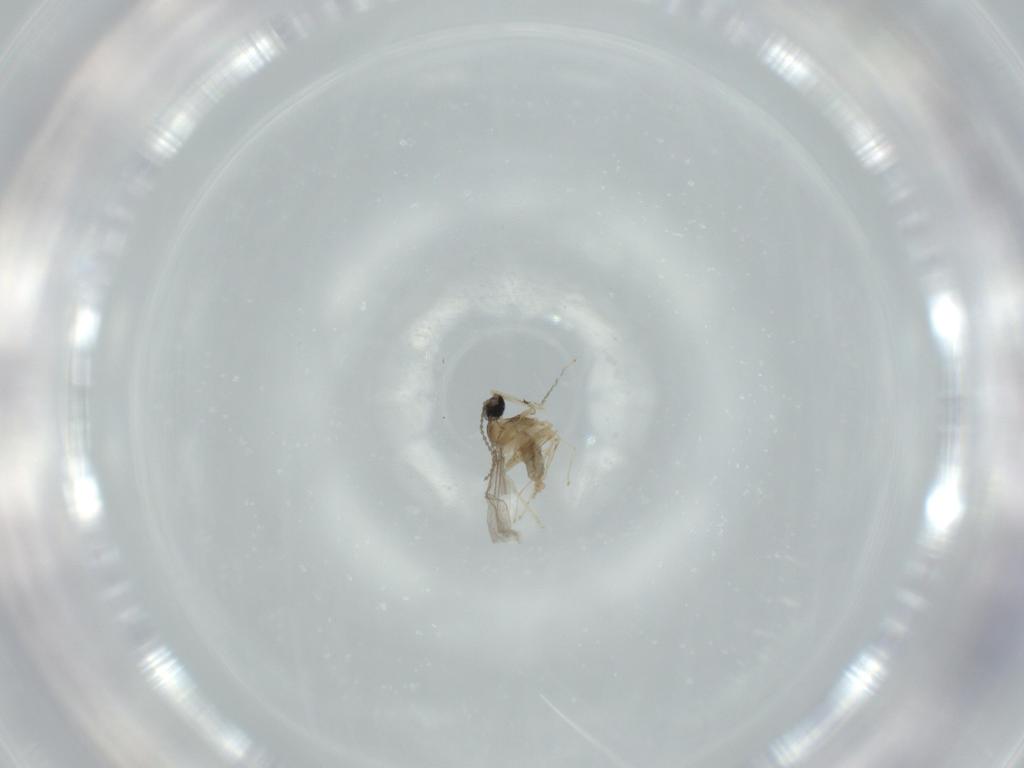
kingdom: Animalia
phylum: Arthropoda
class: Insecta
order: Diptera
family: Cecidomyiidae
